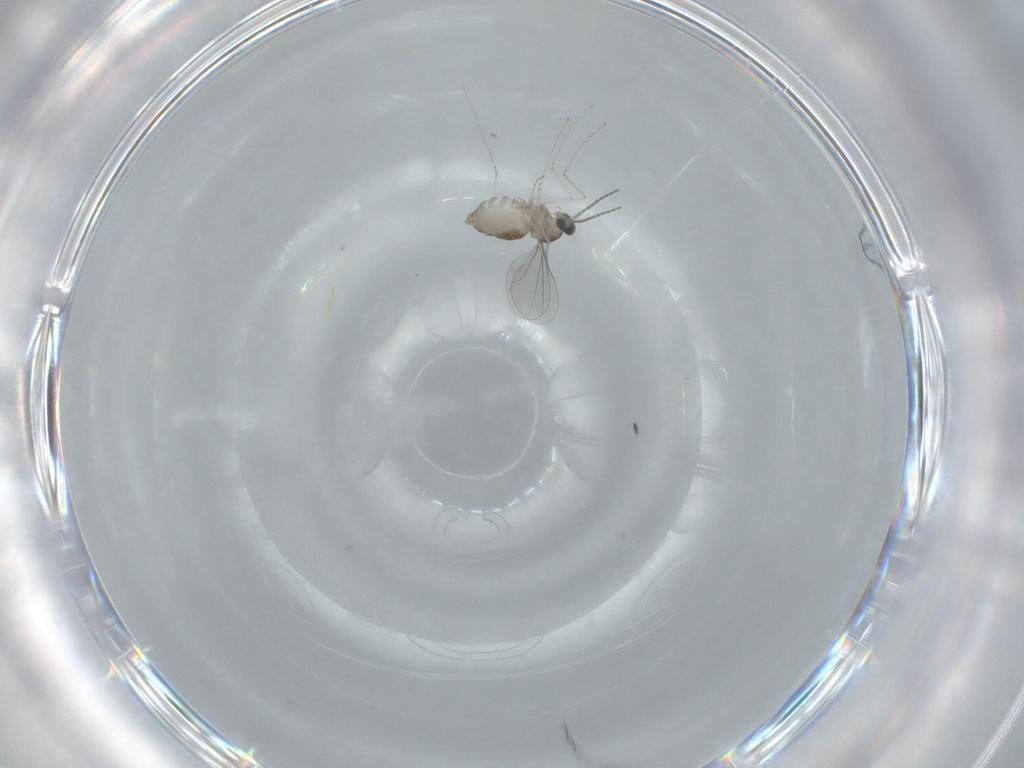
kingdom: Animalia
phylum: Arthropoda
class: Insecta
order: Diptera
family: Cecidomyiidae
